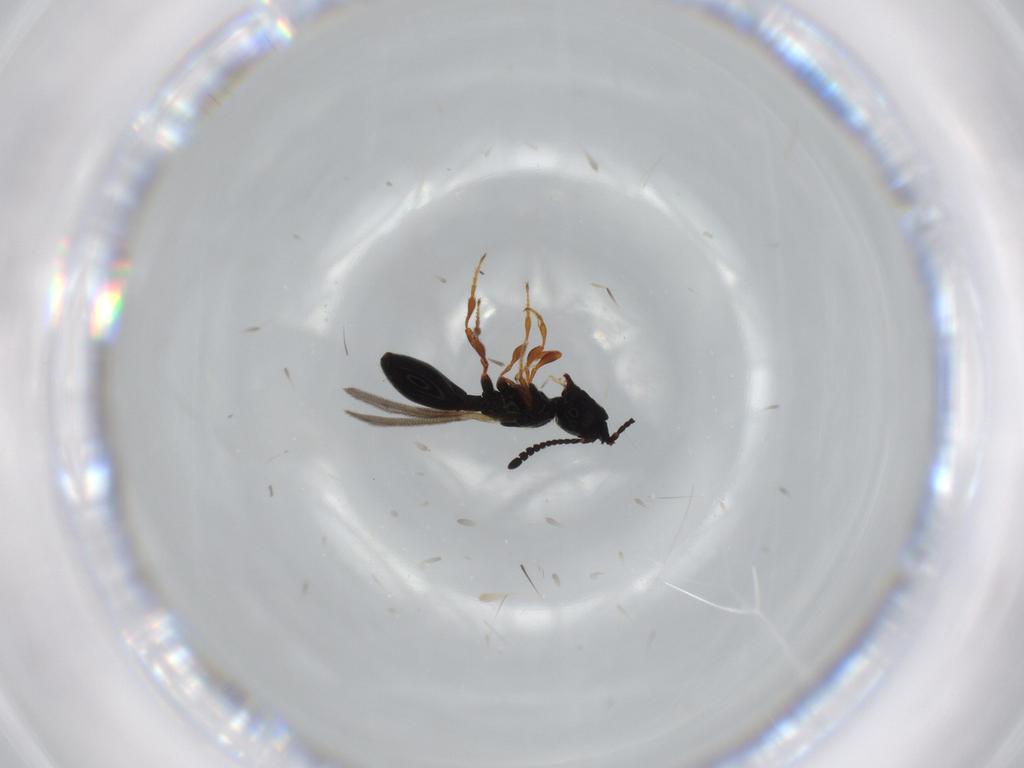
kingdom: Animalia
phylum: Arthropoda
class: Insecta
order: Hymenoptera
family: Diapriidae
